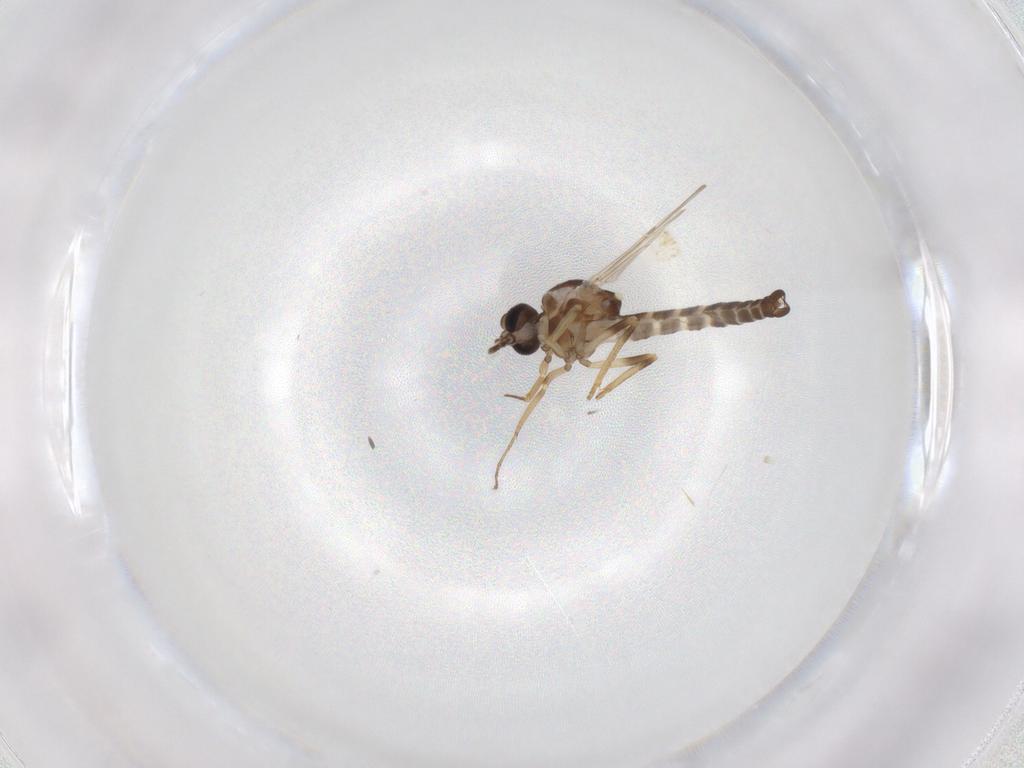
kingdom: Animalia
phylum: Arthropoda
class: Insecta
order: Diptera
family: Ceratopogonidae
